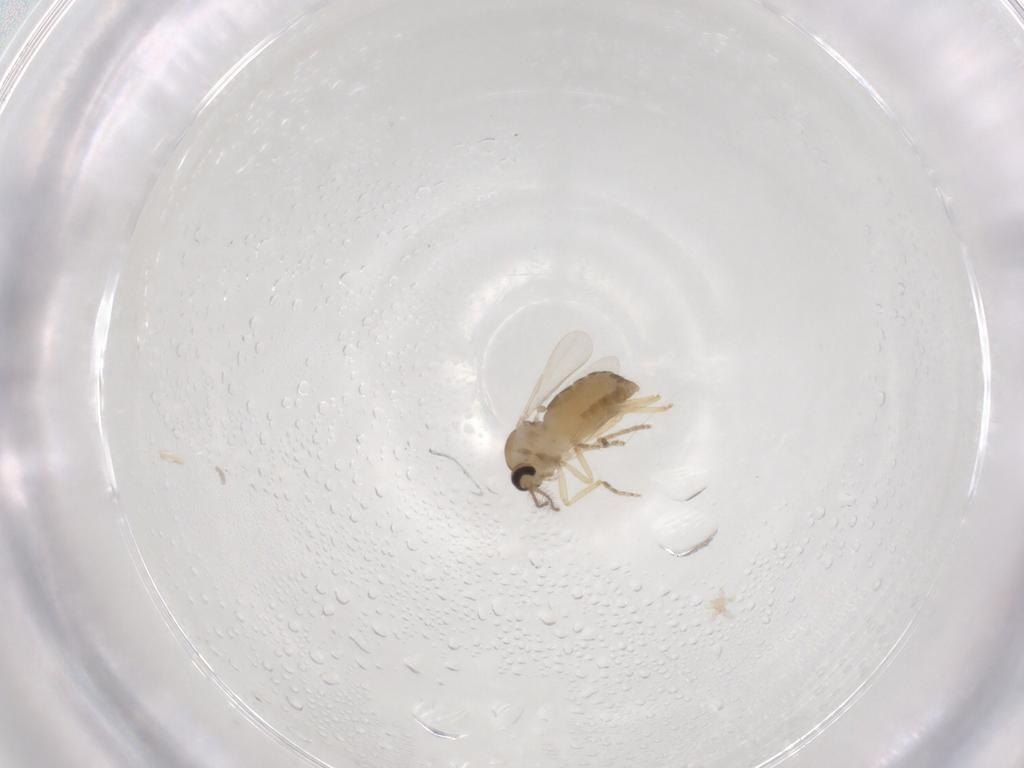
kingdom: Animalia
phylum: Arthropoda
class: Insecta
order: Diptera
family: Ceratopogonidae
